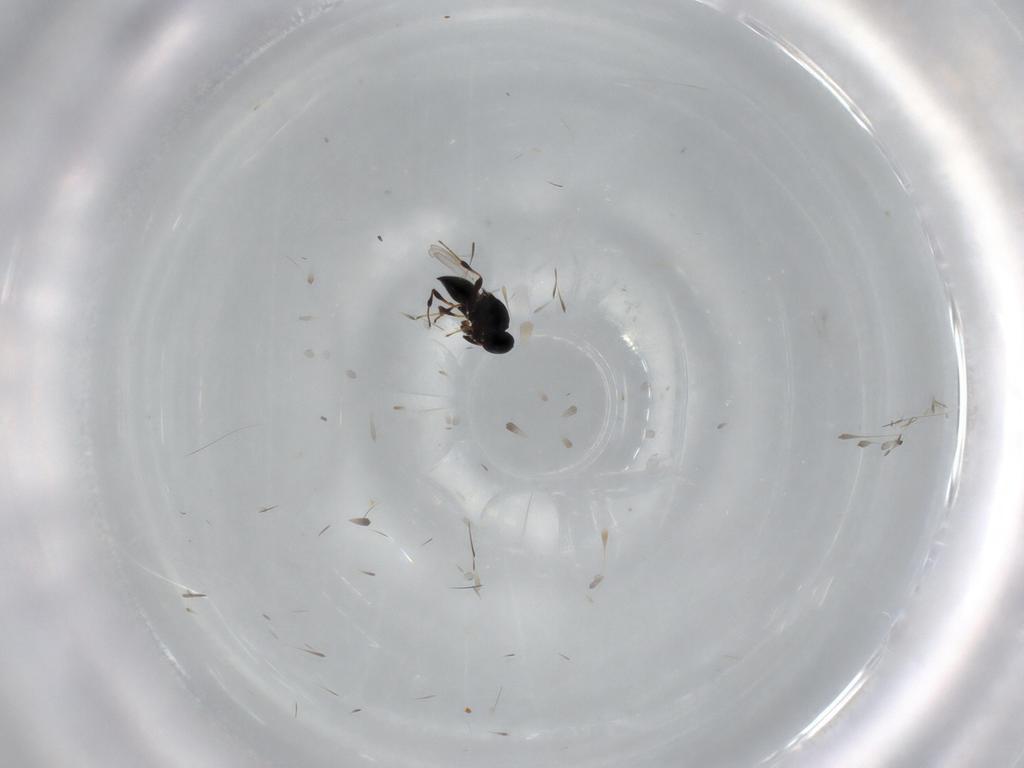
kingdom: Animalia
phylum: Arthropoda
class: Insecta
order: Hymenoptera
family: Platygastridae
